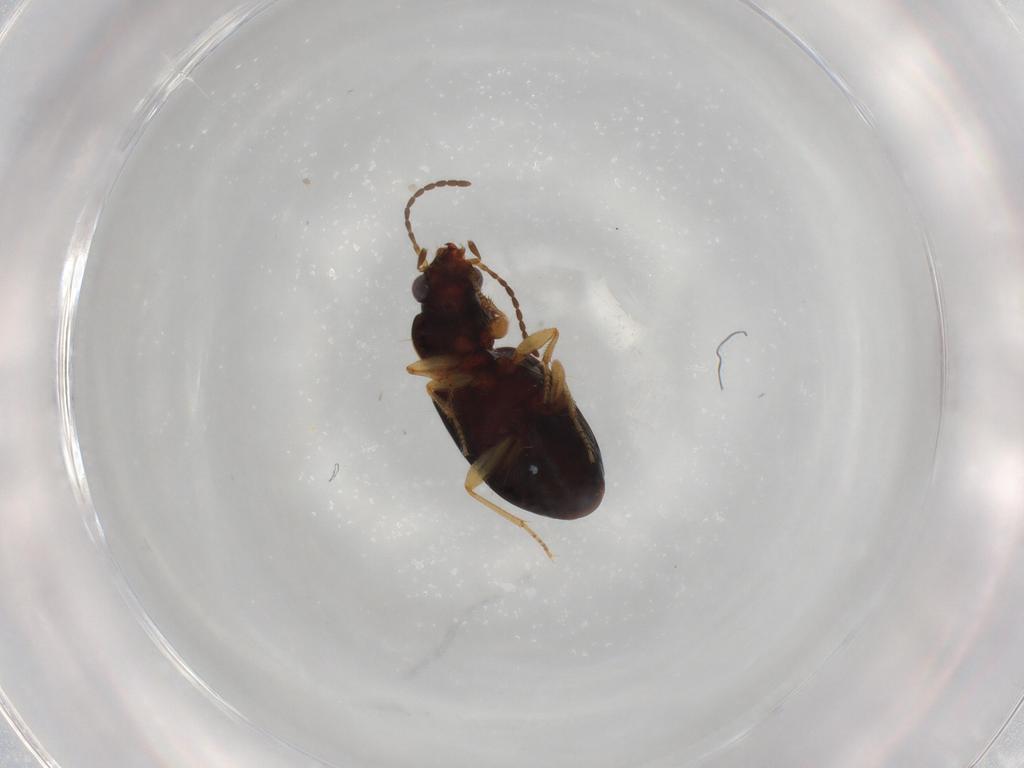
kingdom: Animalia
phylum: Arthropoda
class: Insecta
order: Coleoptera
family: Carabidae
